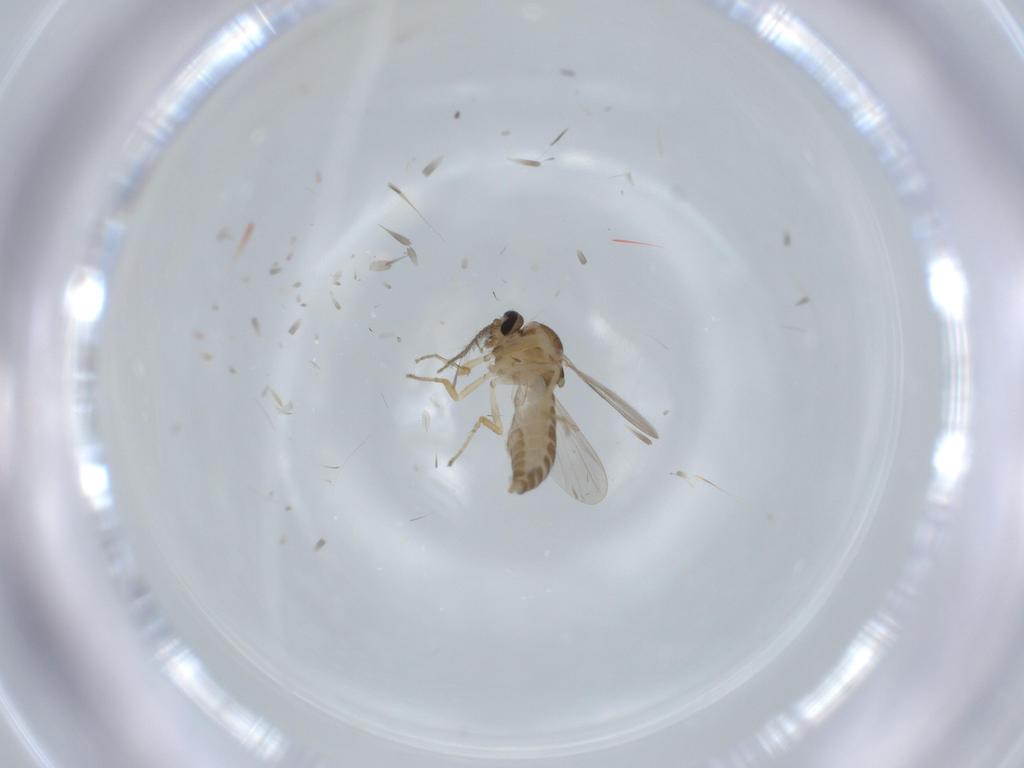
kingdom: Animalia
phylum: Arthropoda
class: Insecta
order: Diptera
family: Ceratopogonidae
